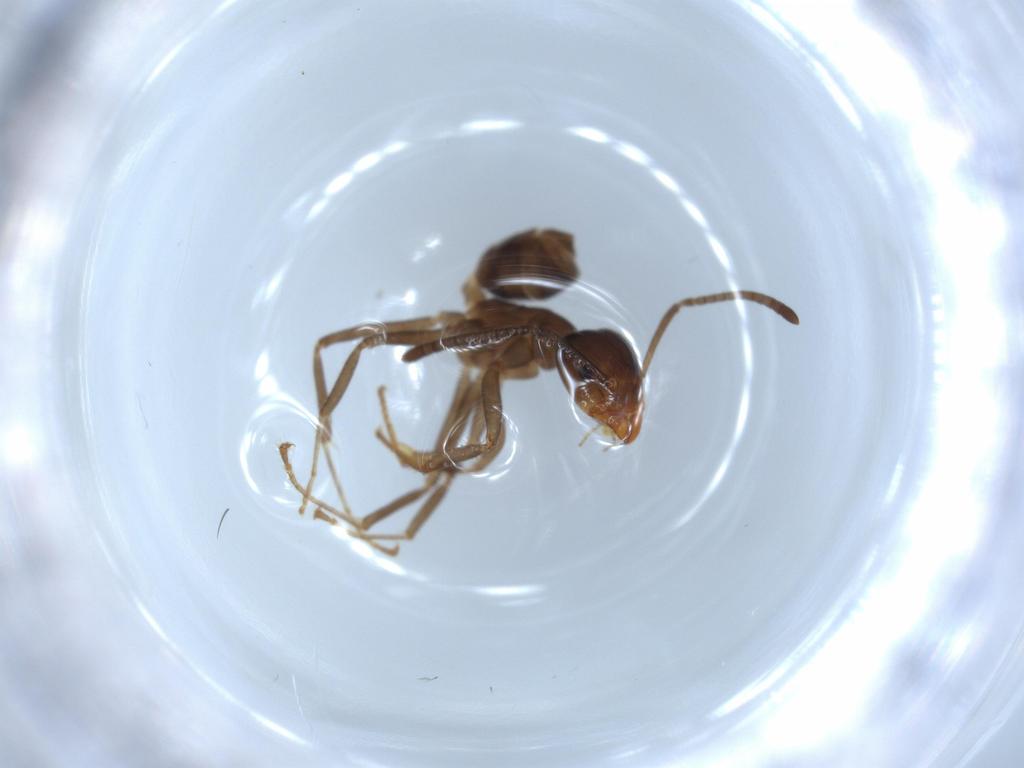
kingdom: Animalia
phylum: Arthropoda
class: Insecta
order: Hymenoptera
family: Formicidae
